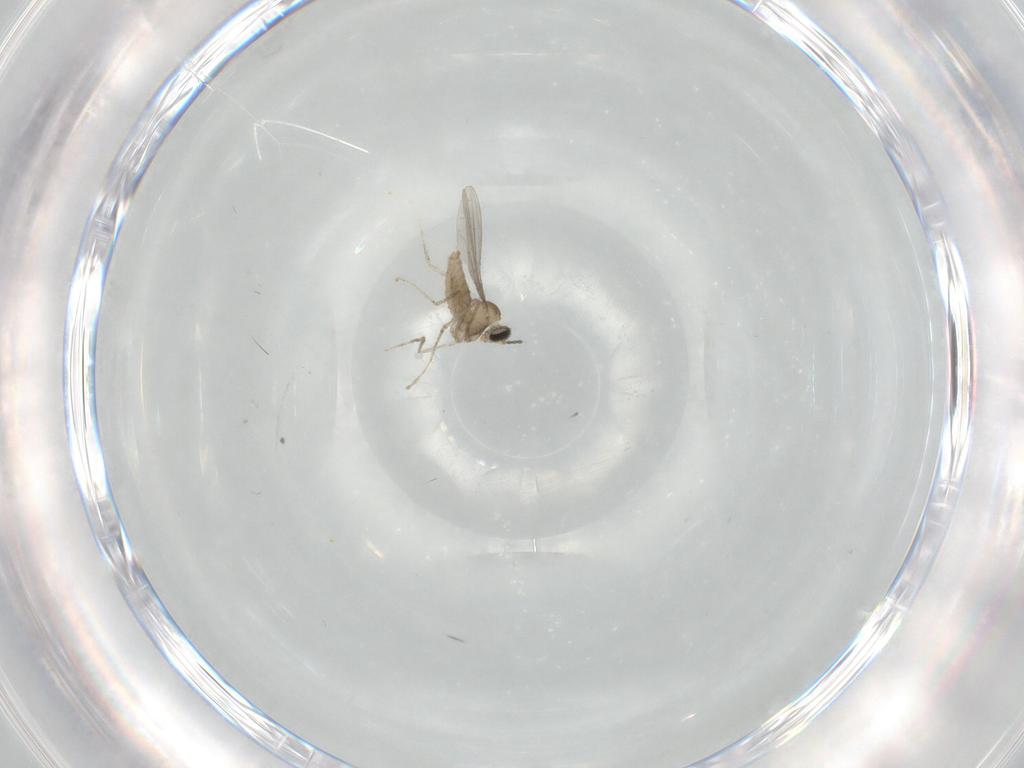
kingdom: Animalia
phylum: Arthropoda
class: Insecta
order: Diptera
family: Cecidomyiidae
